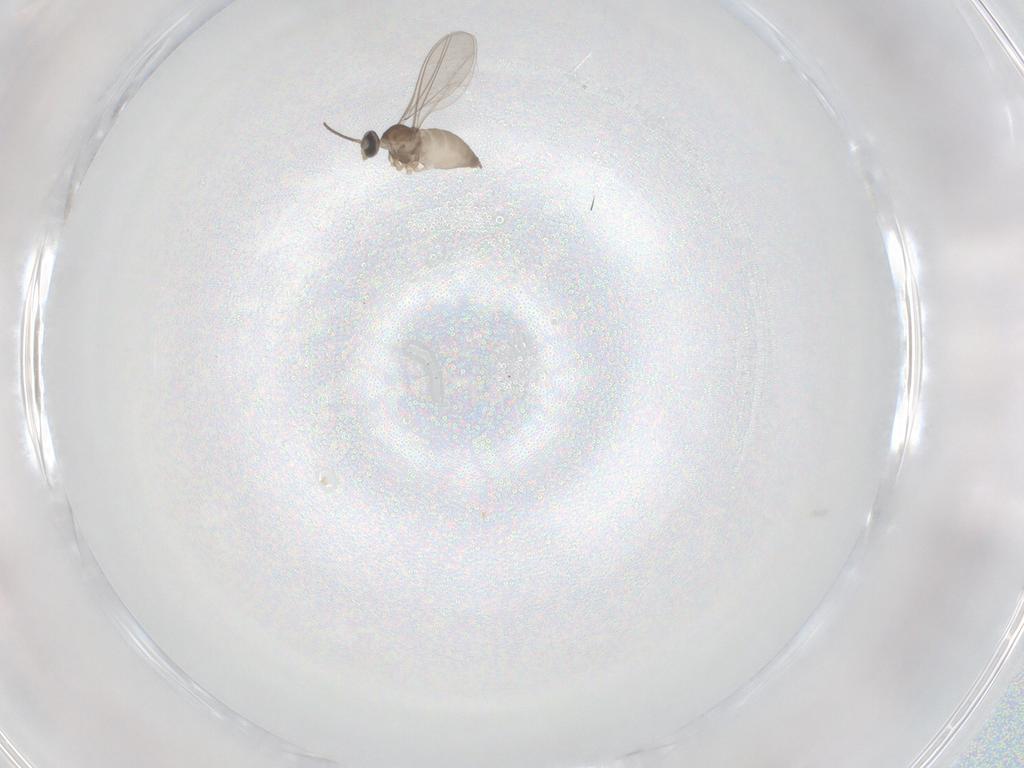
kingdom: Animalia
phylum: Arthropoda
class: Insecta
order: Diptera
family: Cecidomyiidae
